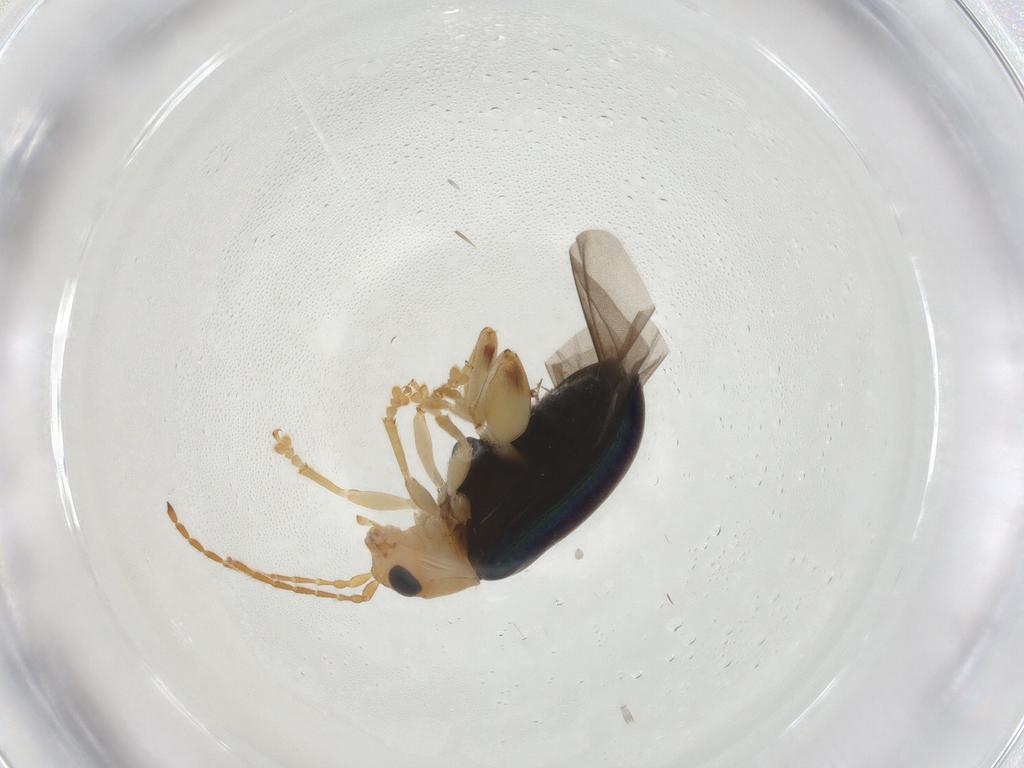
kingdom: Animalia
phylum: Arthropoda
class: Insecta
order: Coleoptera
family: Chrysomelidae
